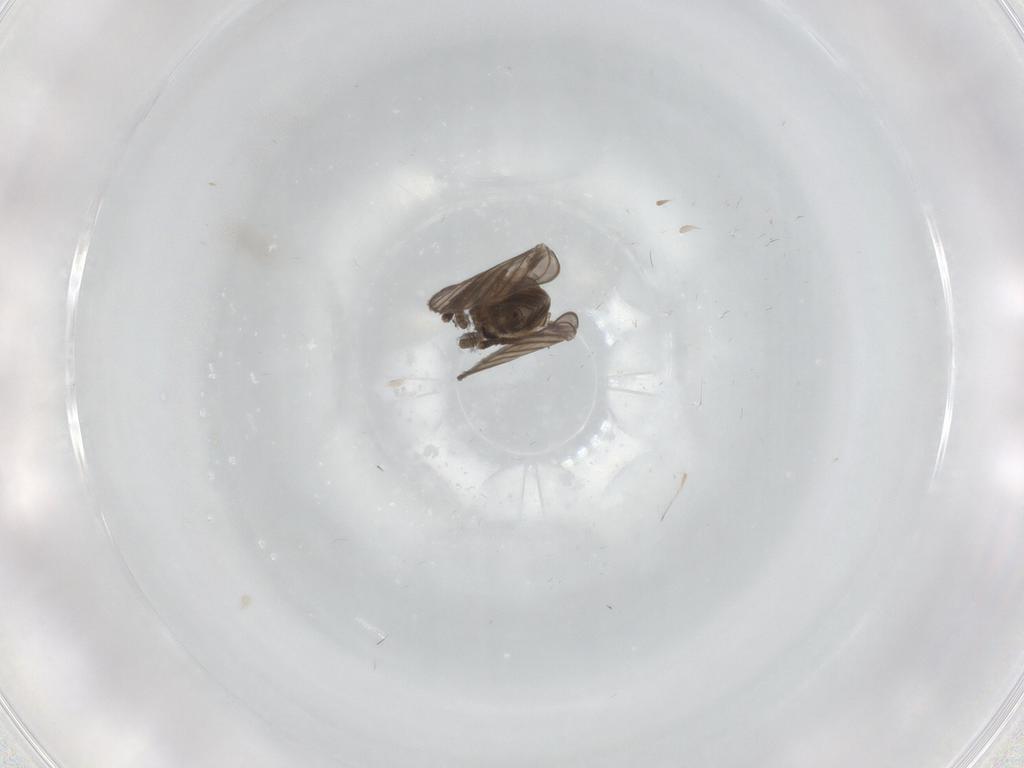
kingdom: Animalia
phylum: Arthropoda
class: Insecta
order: Diptera
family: Psychodidae
